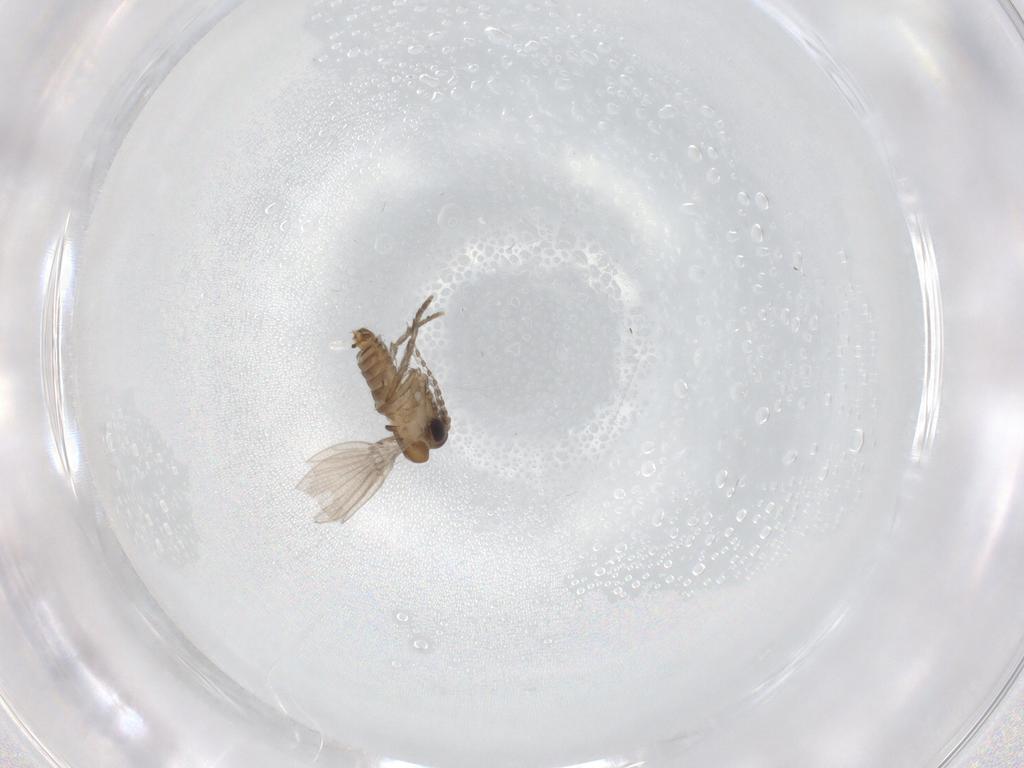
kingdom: Animalia
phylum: Arthropoda
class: Insecta
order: Diptera
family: Psychodidae
